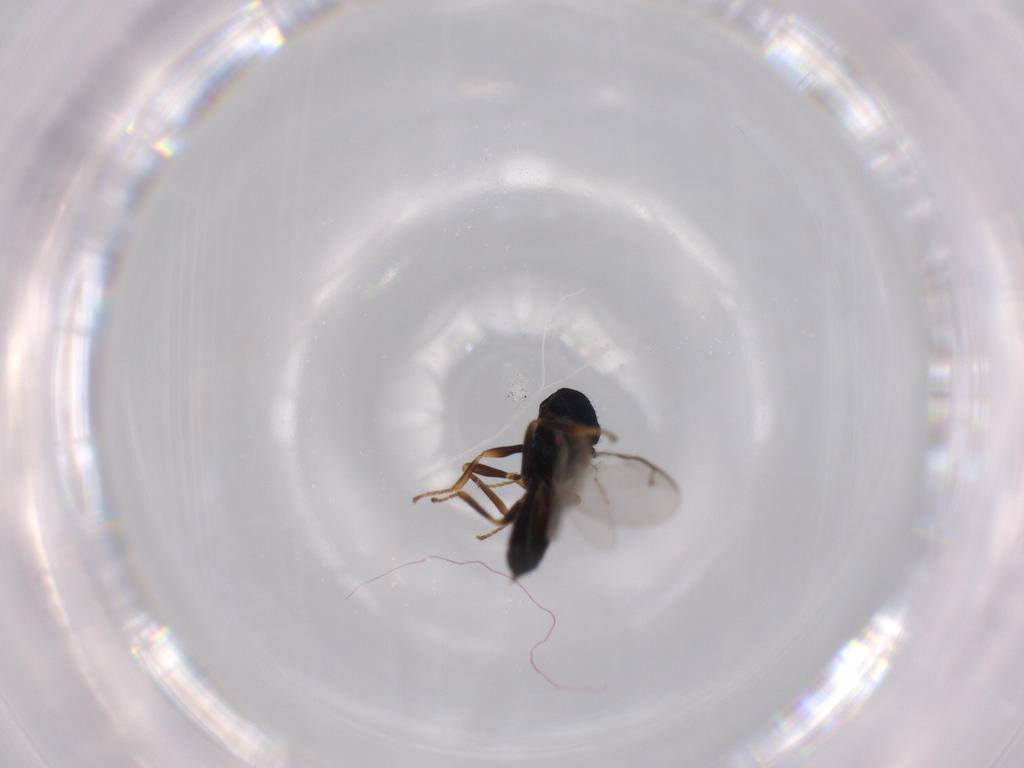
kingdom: Animalia
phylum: Arthropoda
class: Insecta
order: Hymenoptera
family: Pteromalidae
